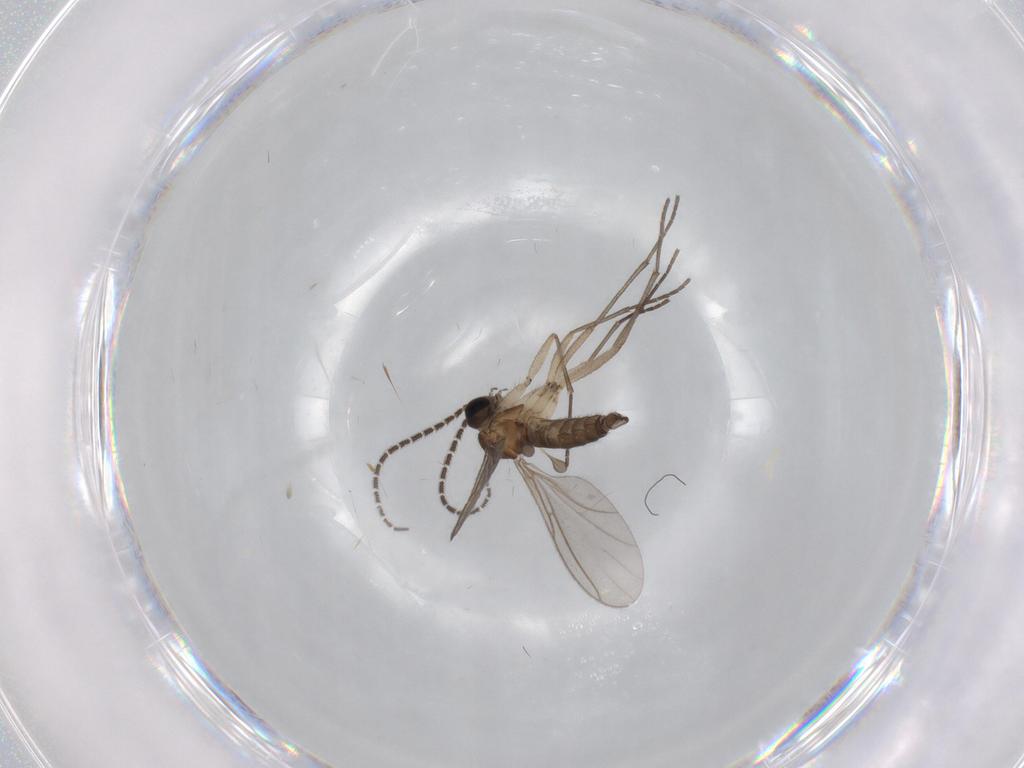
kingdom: Animalia
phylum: Arthropoda
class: Insecta
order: Diptera
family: Sciaridae
